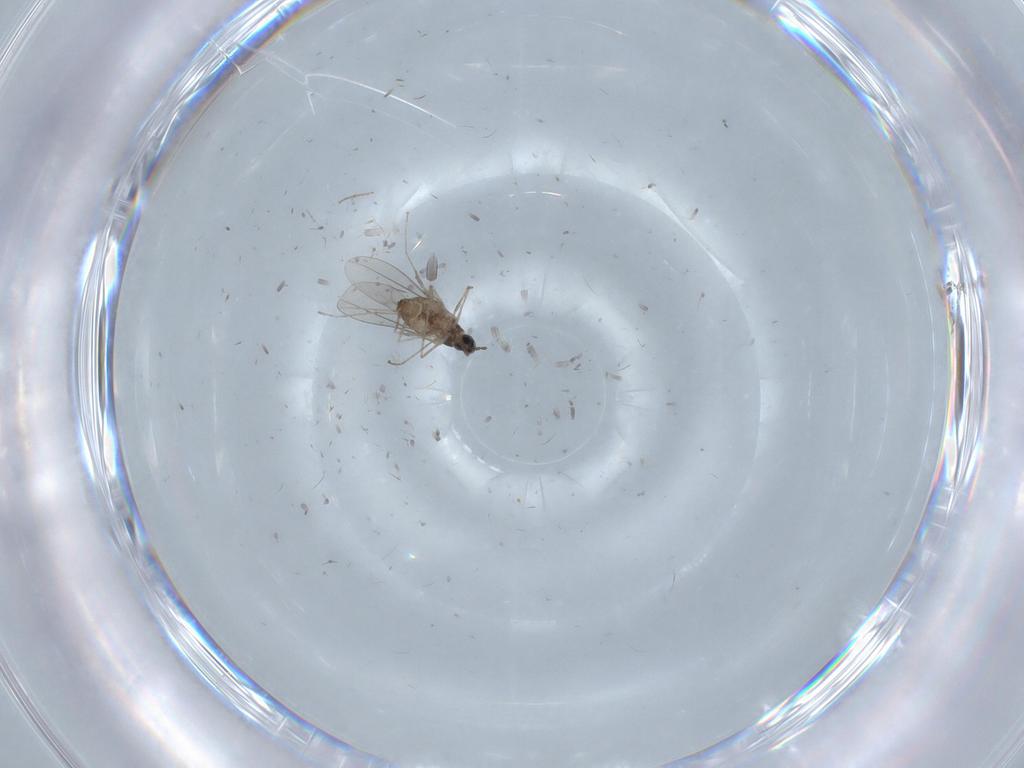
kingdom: Animalia
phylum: Arthropoda
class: Insecta
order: Diptera
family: Cecidomyiidae
